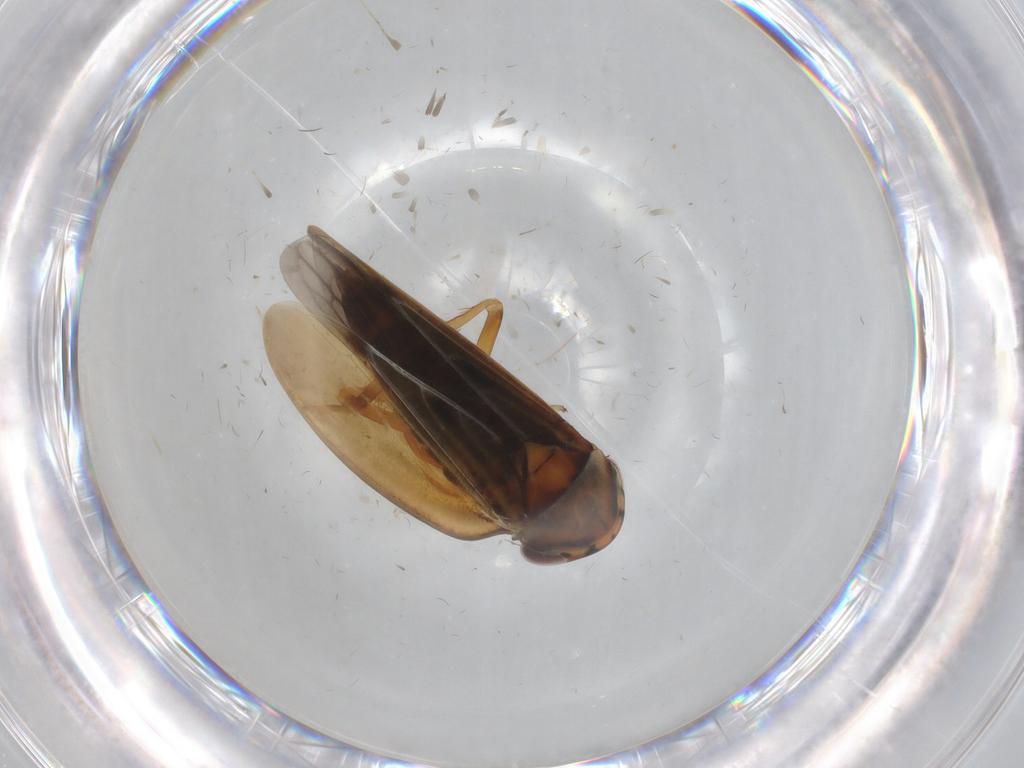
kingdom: Animalia
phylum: Arthropoda
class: Insecta
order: Hemiptera
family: Cicadellidae
